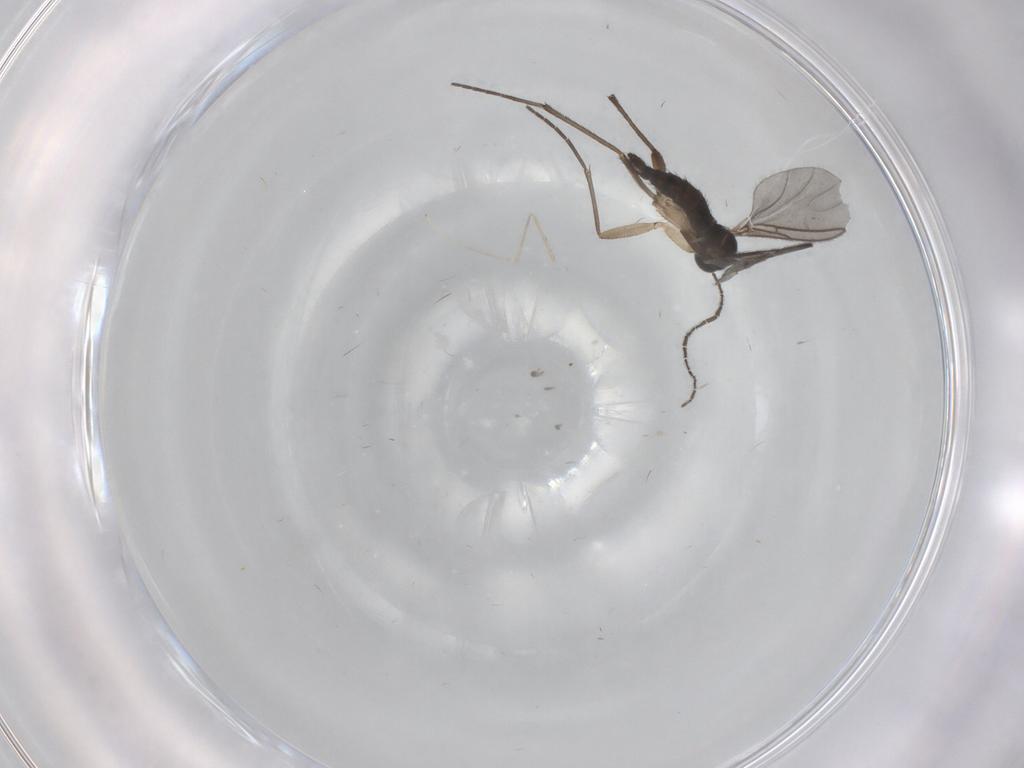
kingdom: Animalia
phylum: Arthropoda
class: Insecta
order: Diptera
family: Sciaridae
